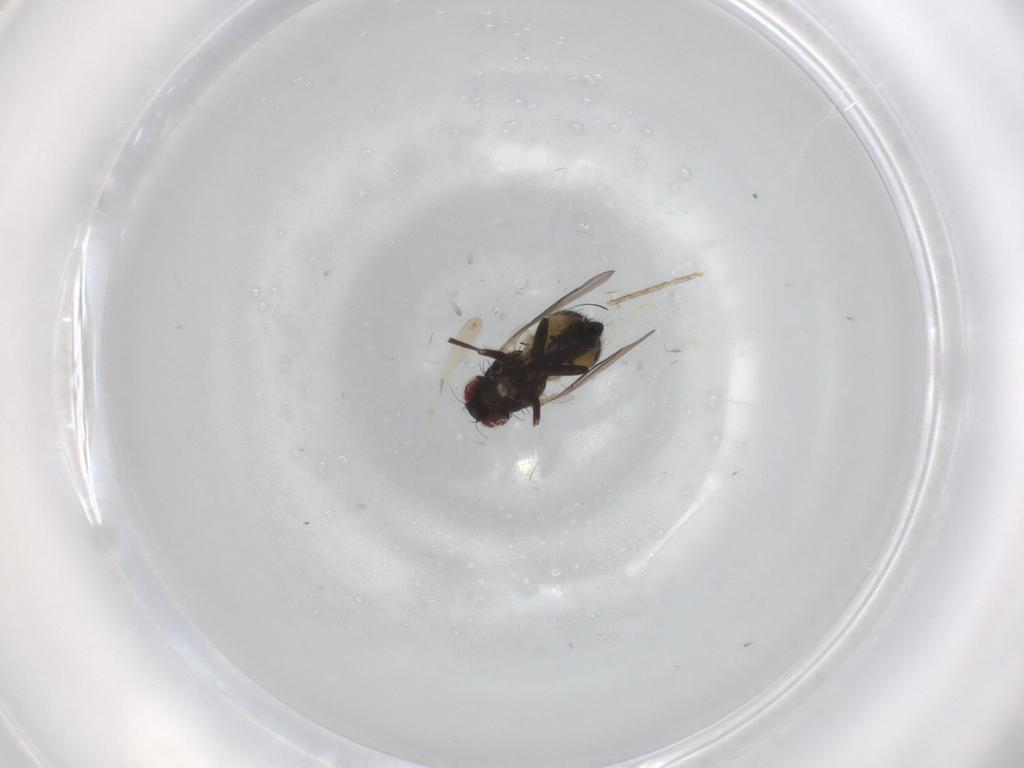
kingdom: Animalia
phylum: Arthropoda
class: Insecta
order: Diptera
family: Agromyzidae
